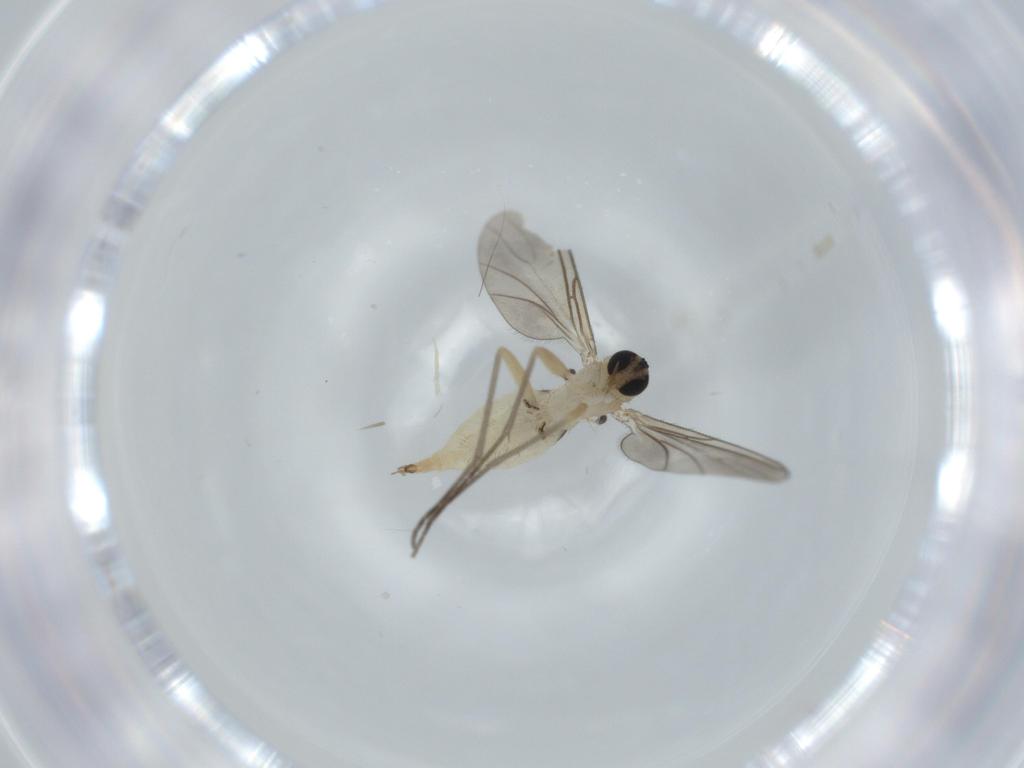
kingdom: Animalia
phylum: Arthropoda
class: Insecta
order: Diptera
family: Sciaridae
